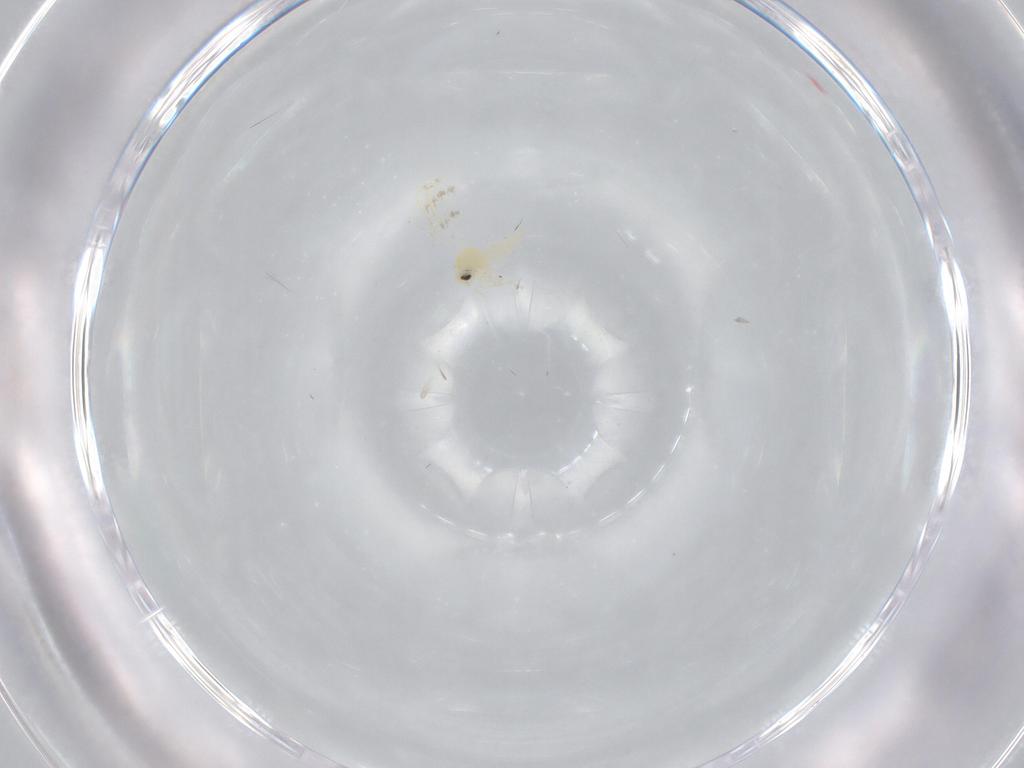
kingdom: Animalia
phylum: Arthropoda
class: Insecta
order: Hemiptera
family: Aleyrodidae
